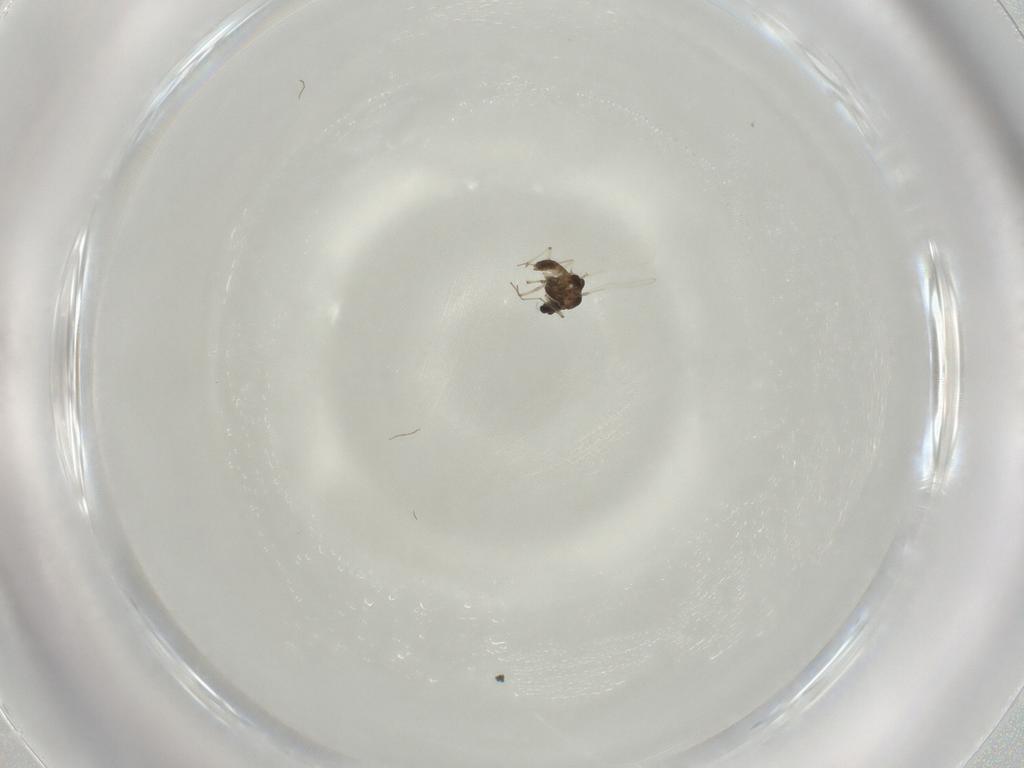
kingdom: Animalia
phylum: Arthropoda
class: Insecta
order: Diptera
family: Chironomidae
